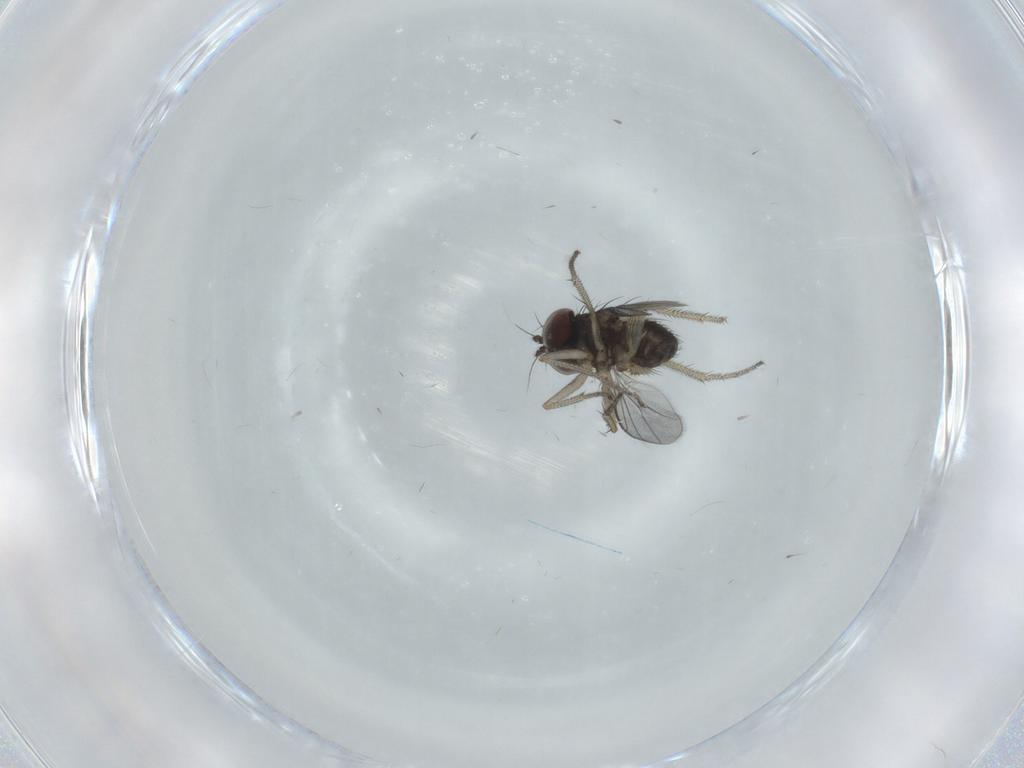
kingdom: Animalia
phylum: Arthropoda
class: Insecta
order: Diptera
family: Dolichopodidae
